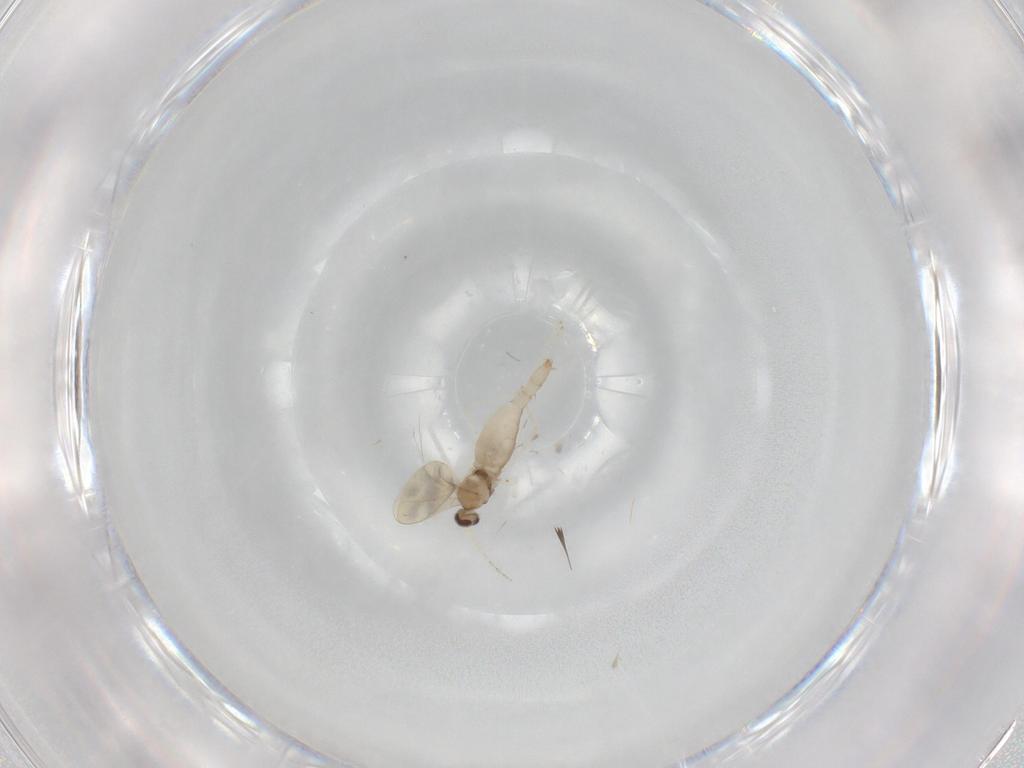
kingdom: Animalia
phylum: Arthropoda
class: Insecta
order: Diptera
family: Cecidomyiidae
